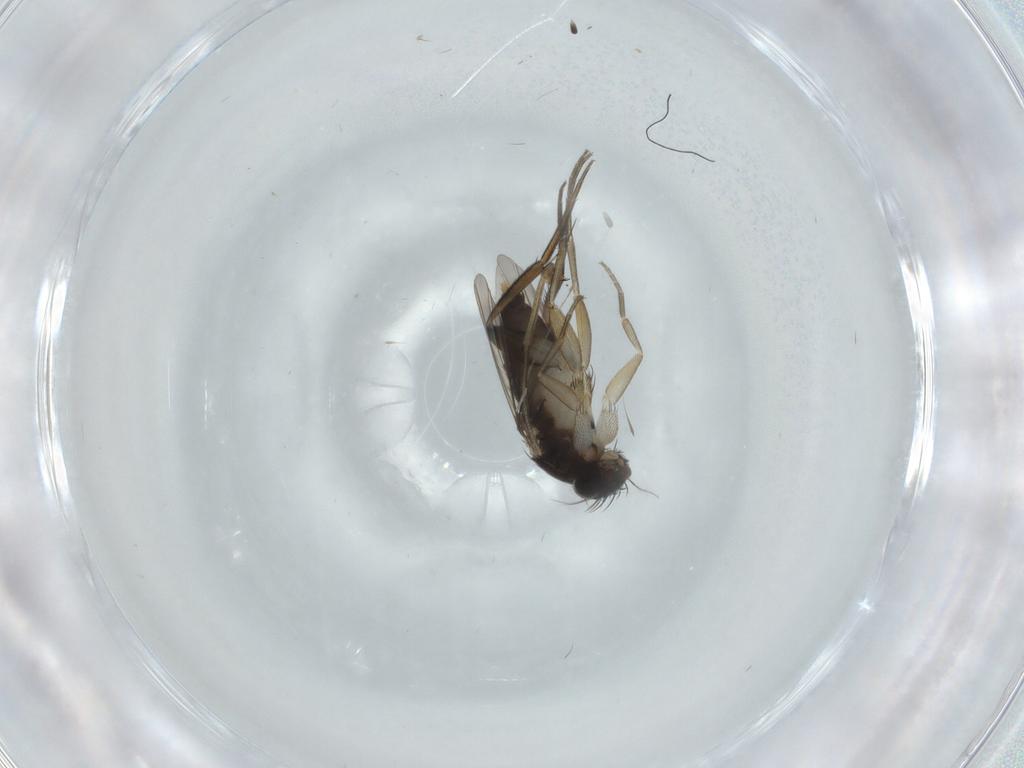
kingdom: Animalia
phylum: Arthropoda
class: Insecta
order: Diptera
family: Phoridae
